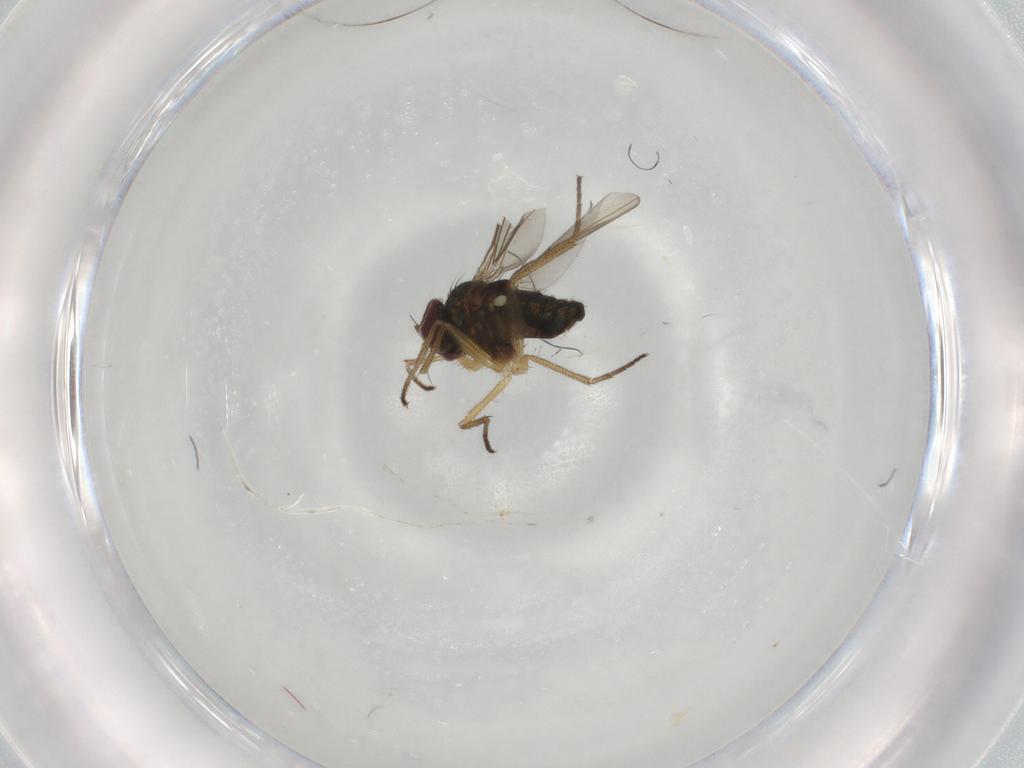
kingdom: Animalia
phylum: Arthropoda
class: Insecta
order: Diptera
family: Dolichopodidae
